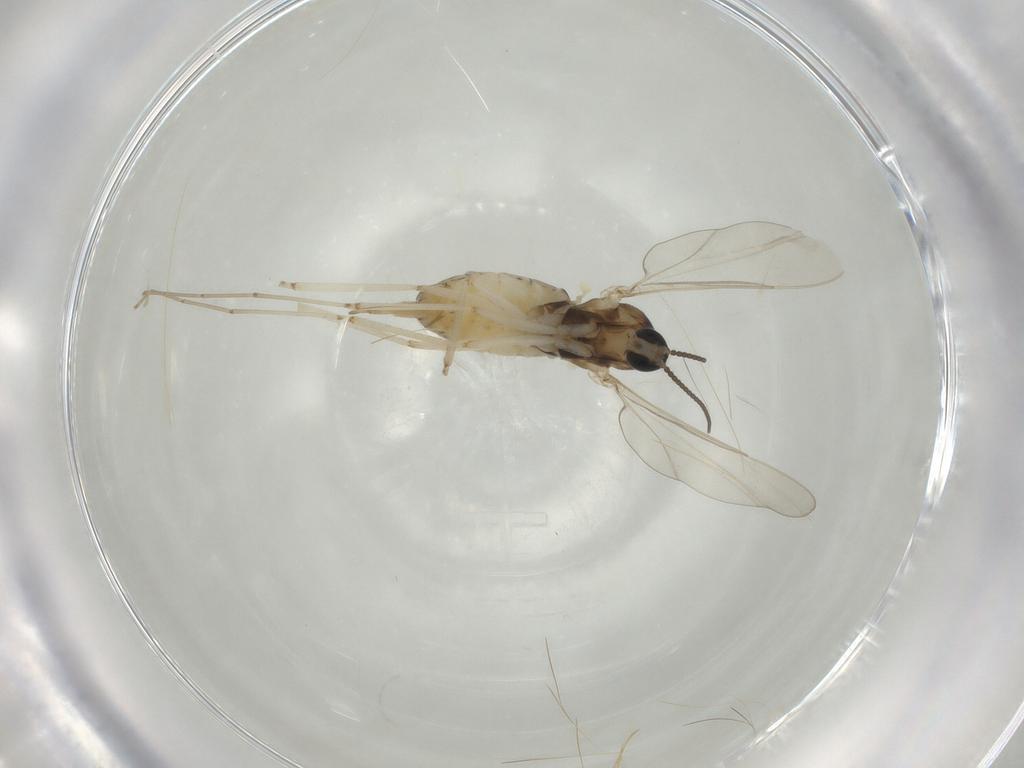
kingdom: Animalia
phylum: Arthropoda
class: Insecta
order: Diptera
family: Cecidomyiidae
